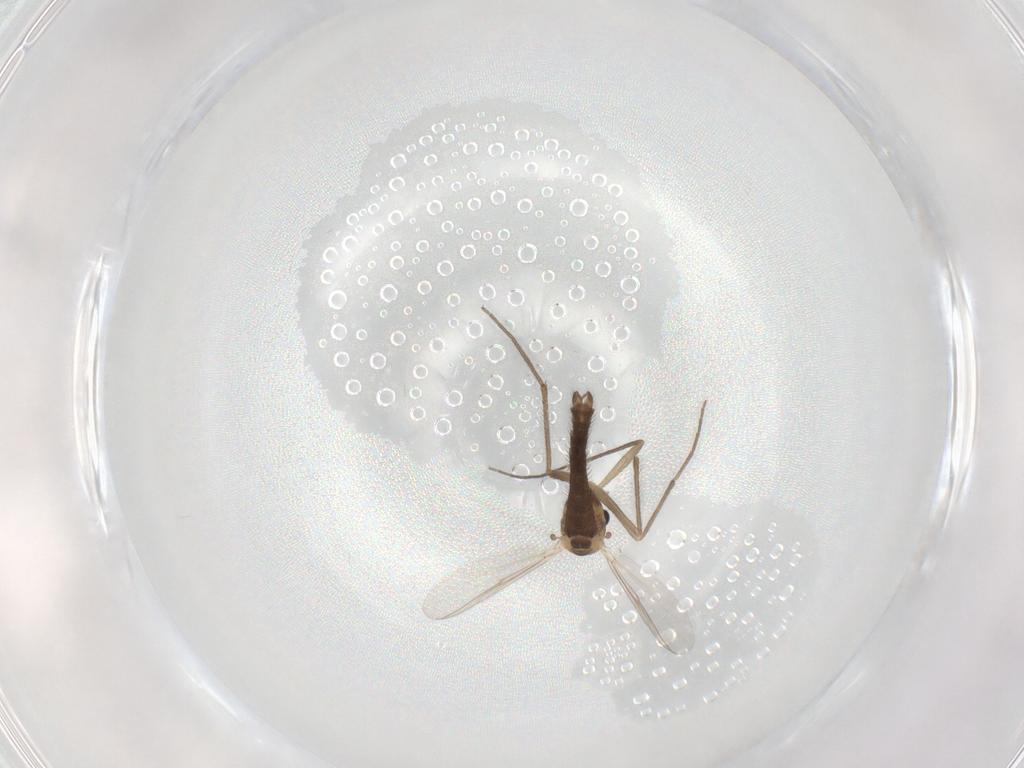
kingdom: Animalia
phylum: Arthropoda
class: Insecta
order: Diptera
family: Chironomidae
